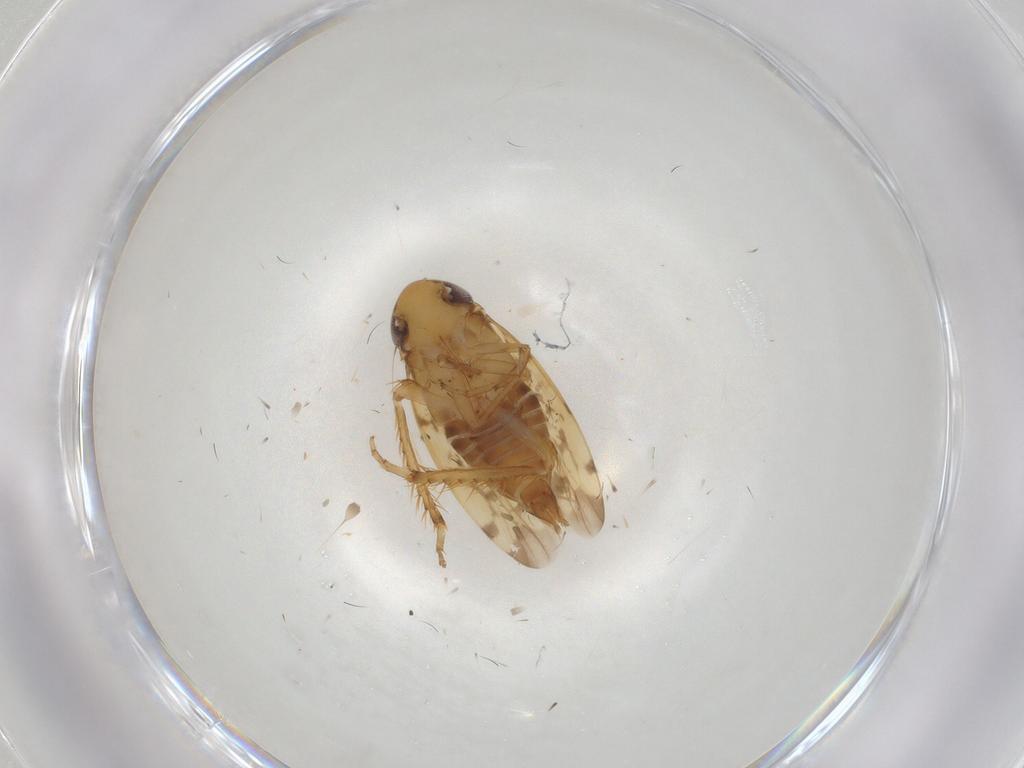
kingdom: Animalia
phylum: Arthropoda
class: Insecta
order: Hemiptera
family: Cicadellidae
